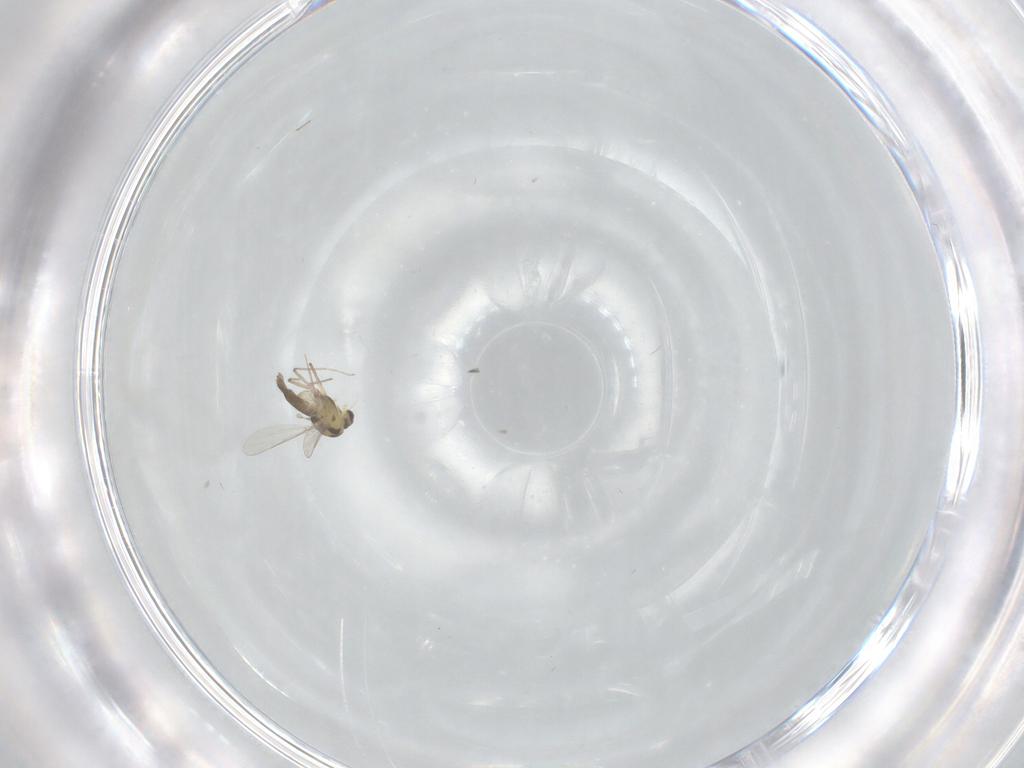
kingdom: Animalia
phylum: Arthropoda
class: Insecta
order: Diptera
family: Chironomidae
